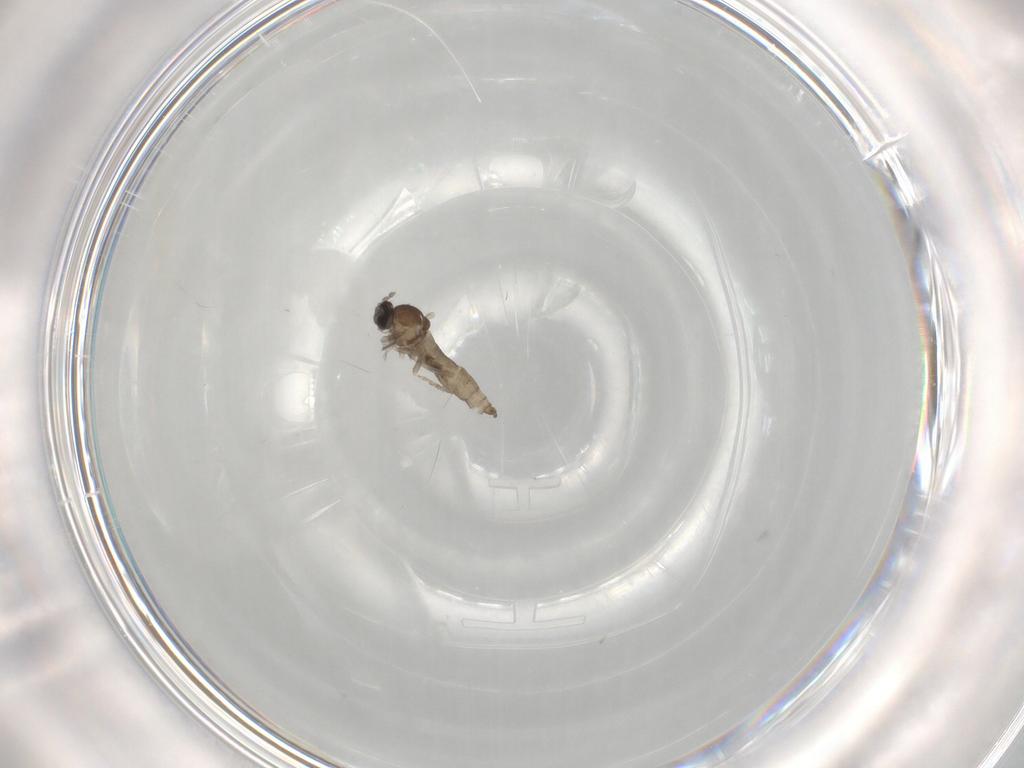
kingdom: Animalia
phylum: Arthropoda
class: Insecta
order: Diptera
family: Cecidomyiidae
